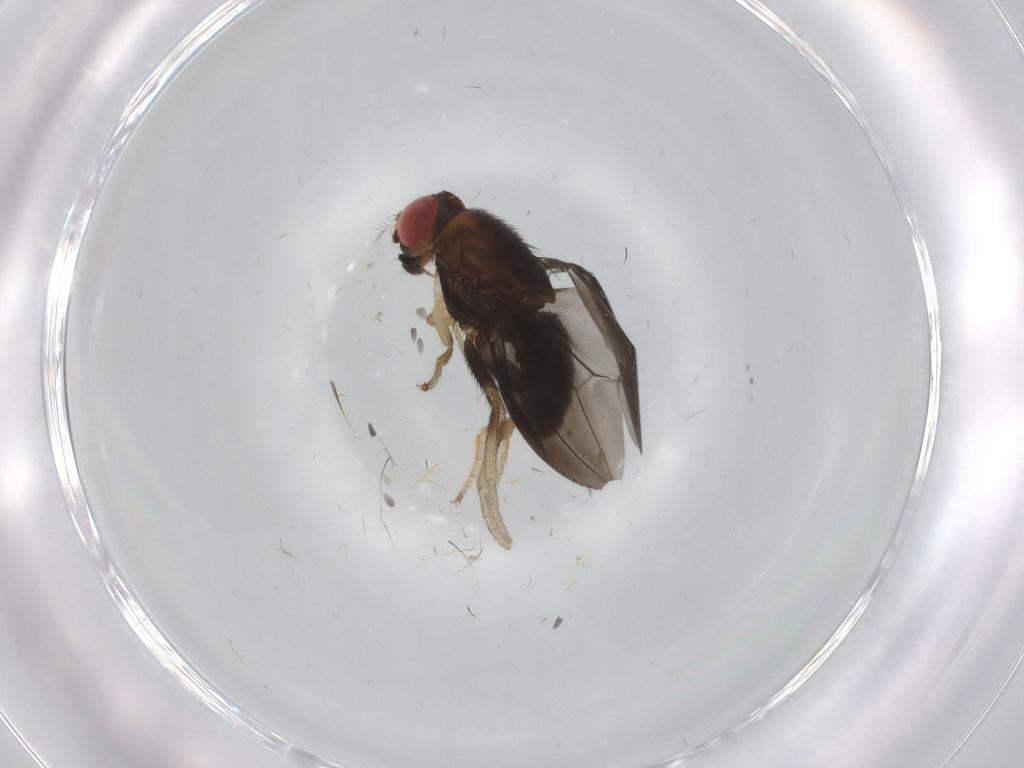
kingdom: Animalia
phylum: Arthropoda
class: Insecta
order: Diptera
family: Drosophilidae
